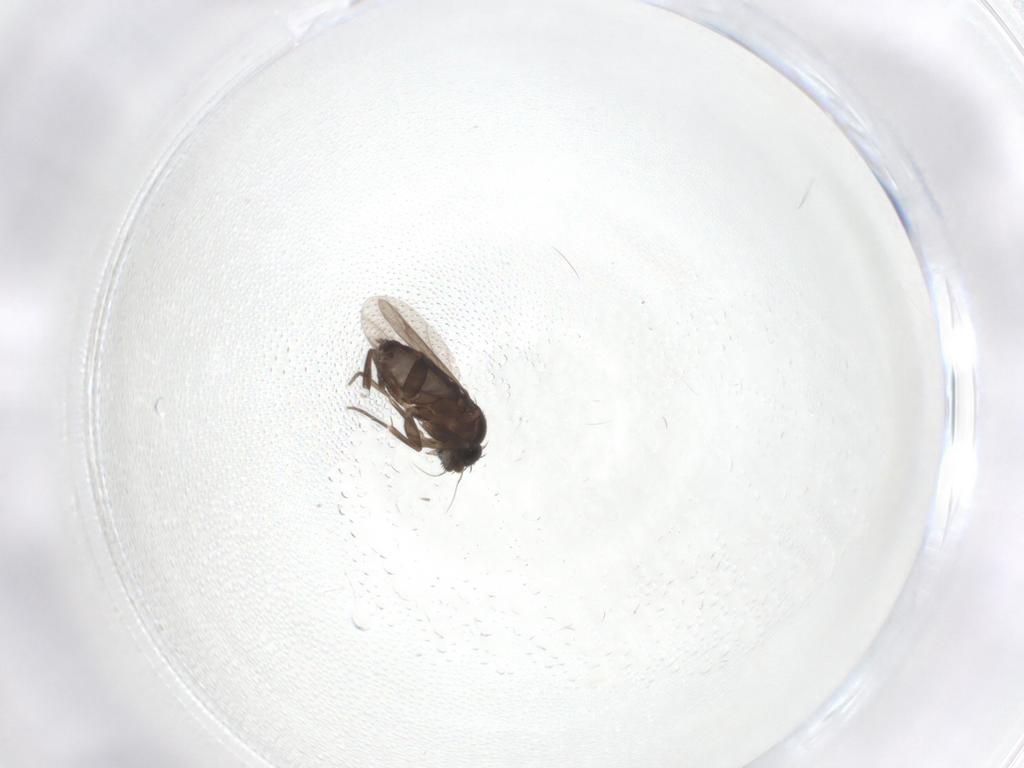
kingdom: Animalia
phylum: Arthropoda
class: Insecta
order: Diptera
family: Phoridae
